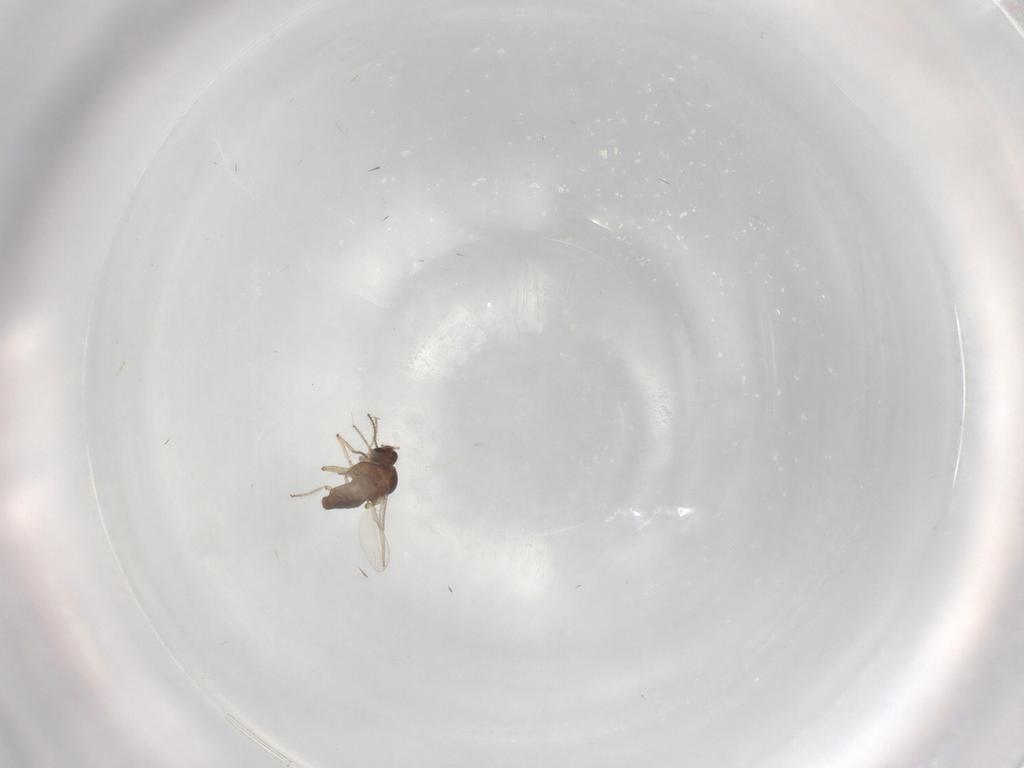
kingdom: Animalia
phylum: Arthropoda
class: Insecta
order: Diptera
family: Ceratopogonidae
